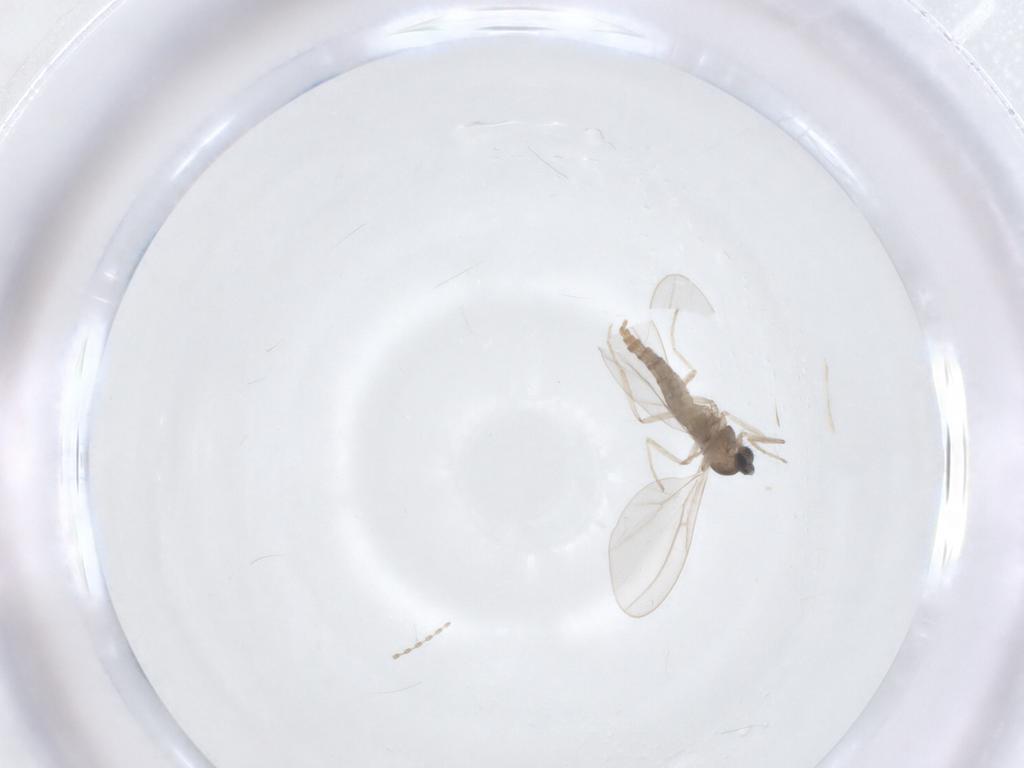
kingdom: Animalia
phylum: Arthropoda
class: Insecta
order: Diptera
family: Cecidomyiidae
